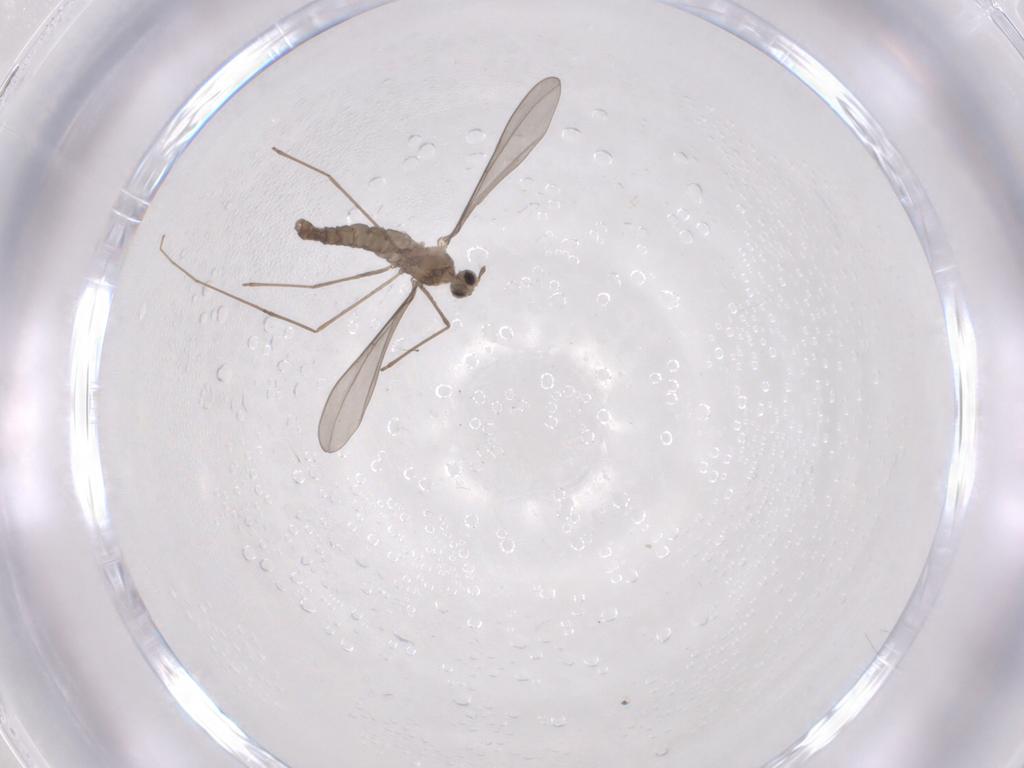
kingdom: Animalia
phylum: Arthropoda
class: Insecta
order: Diptera
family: Cecidomyiidae
